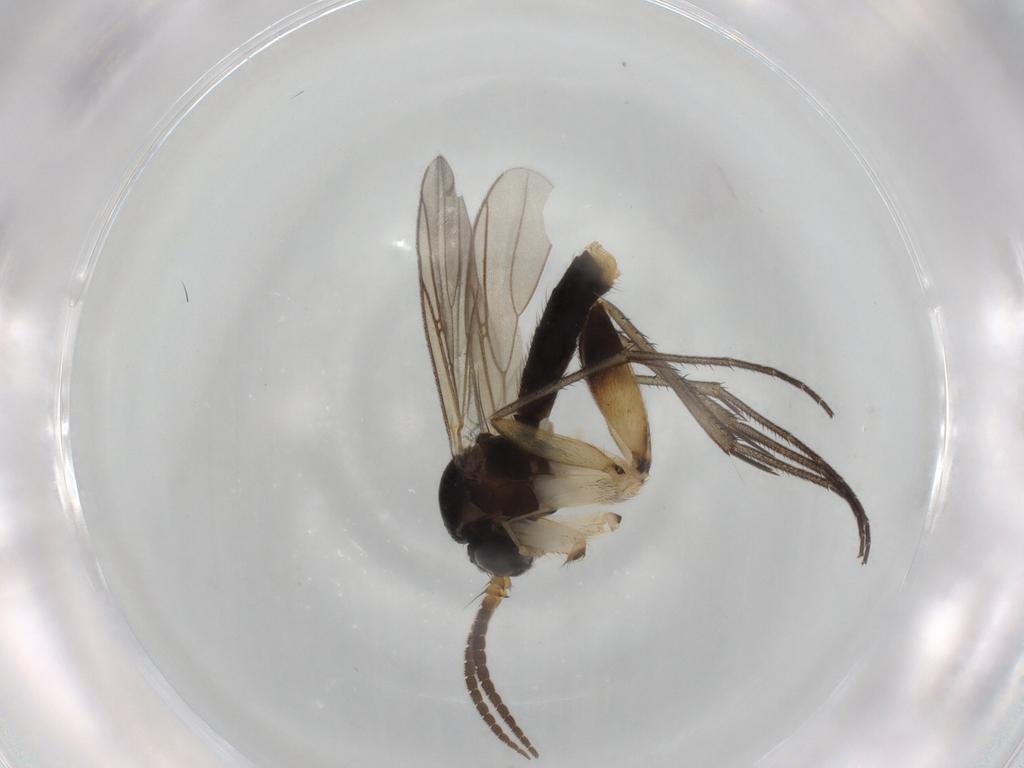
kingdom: Animalia
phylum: Arthropoda
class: Insecta
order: Diptera
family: Mycetophilidae
